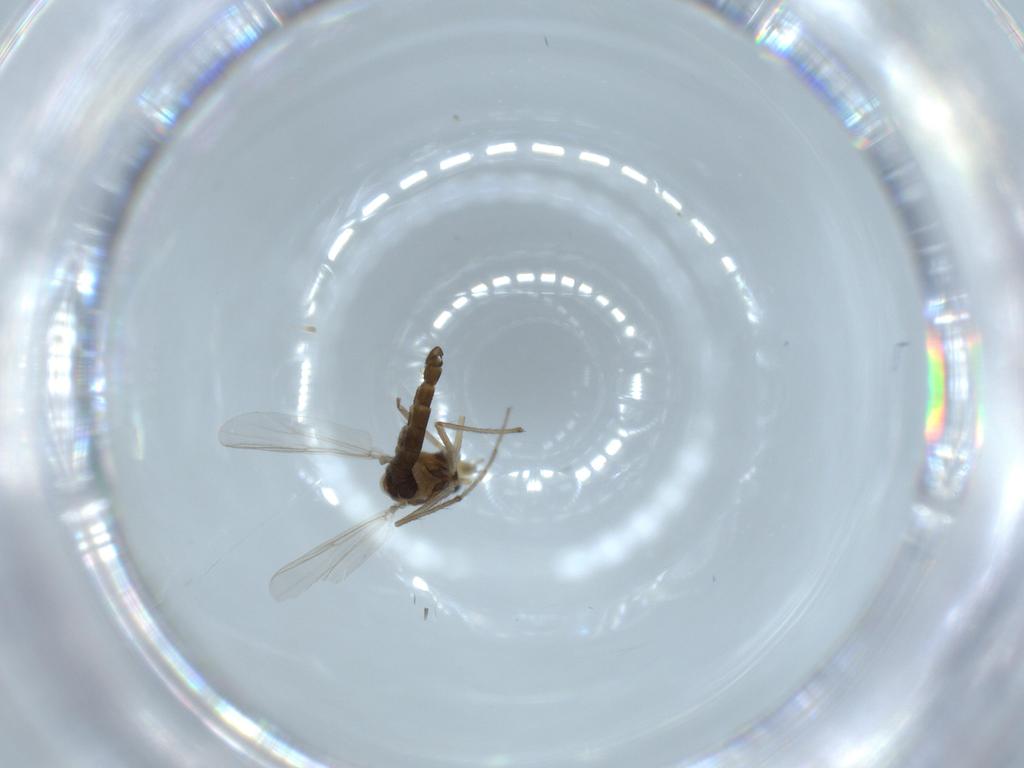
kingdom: Animalia
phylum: Arthropoda
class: Insecta
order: Diptera
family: Chironomidae
